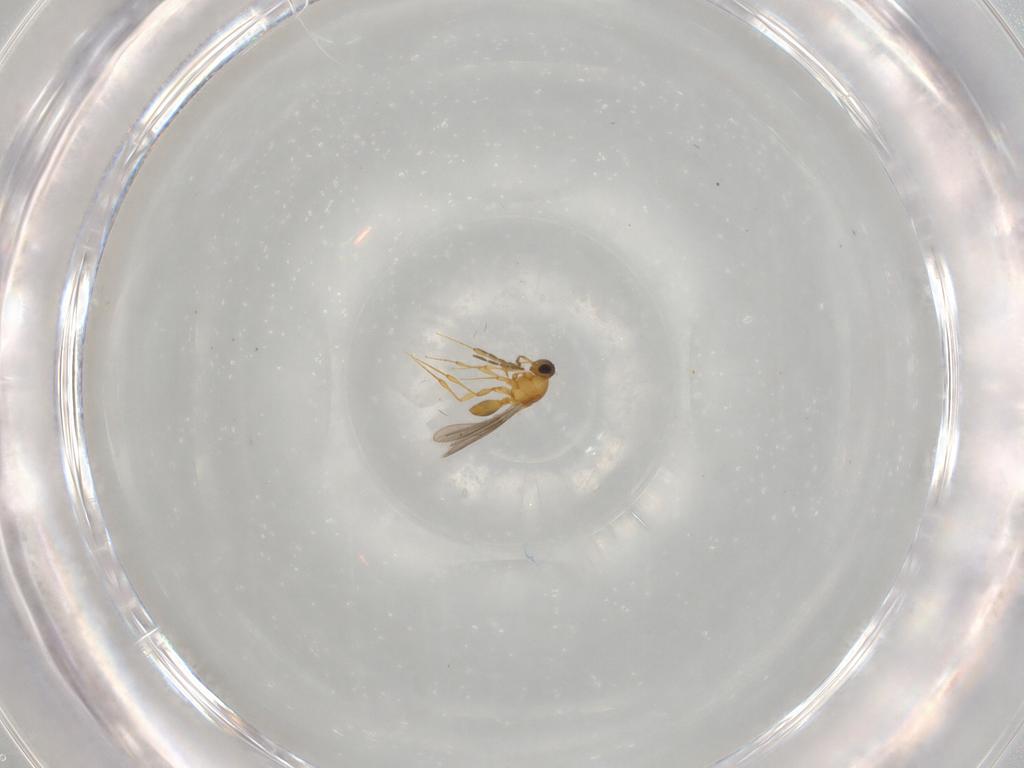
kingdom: Animalia
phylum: Arthropoda
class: Insecta
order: Hymenoptera
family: Platygastridae
